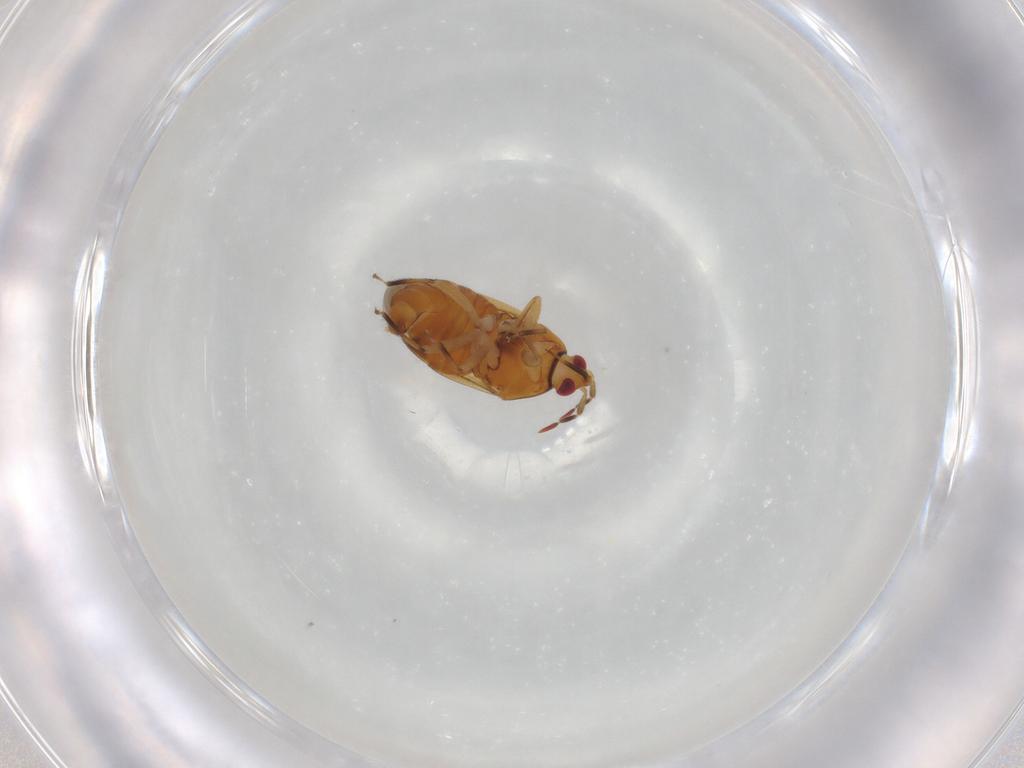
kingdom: Animalia
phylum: Arthropoda
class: Insecta
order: Hemiptera
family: Anthocoridae
